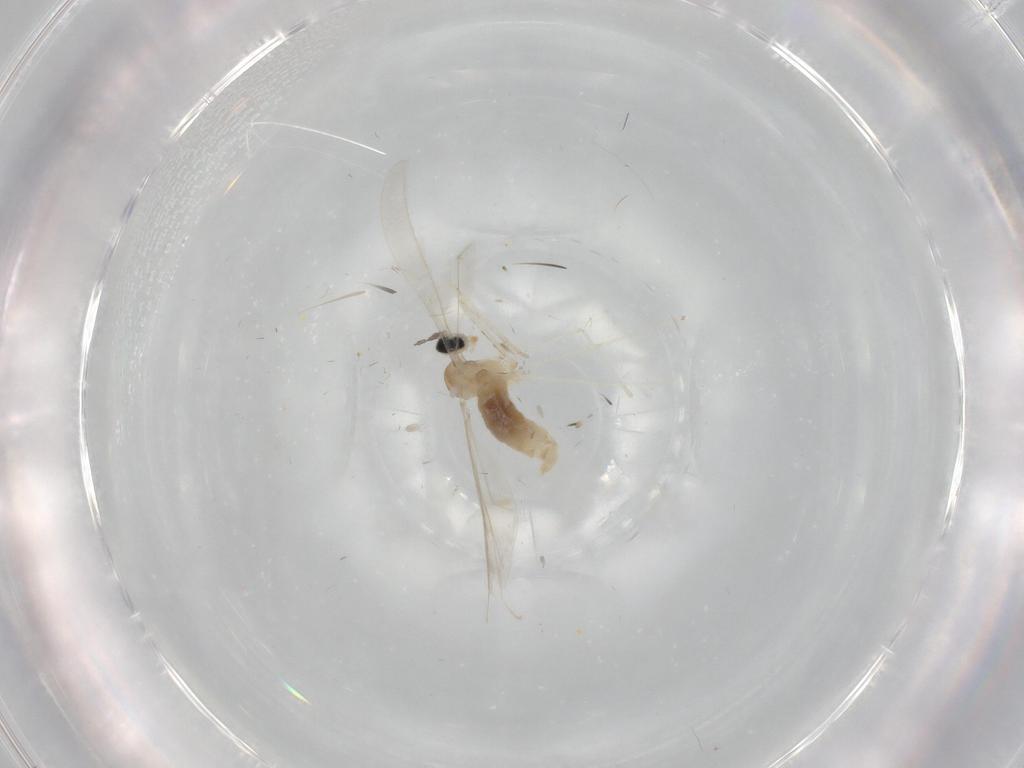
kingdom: Animalia
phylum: Arthropoda
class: Insecta
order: Diptera
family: Cecidomyiidae
